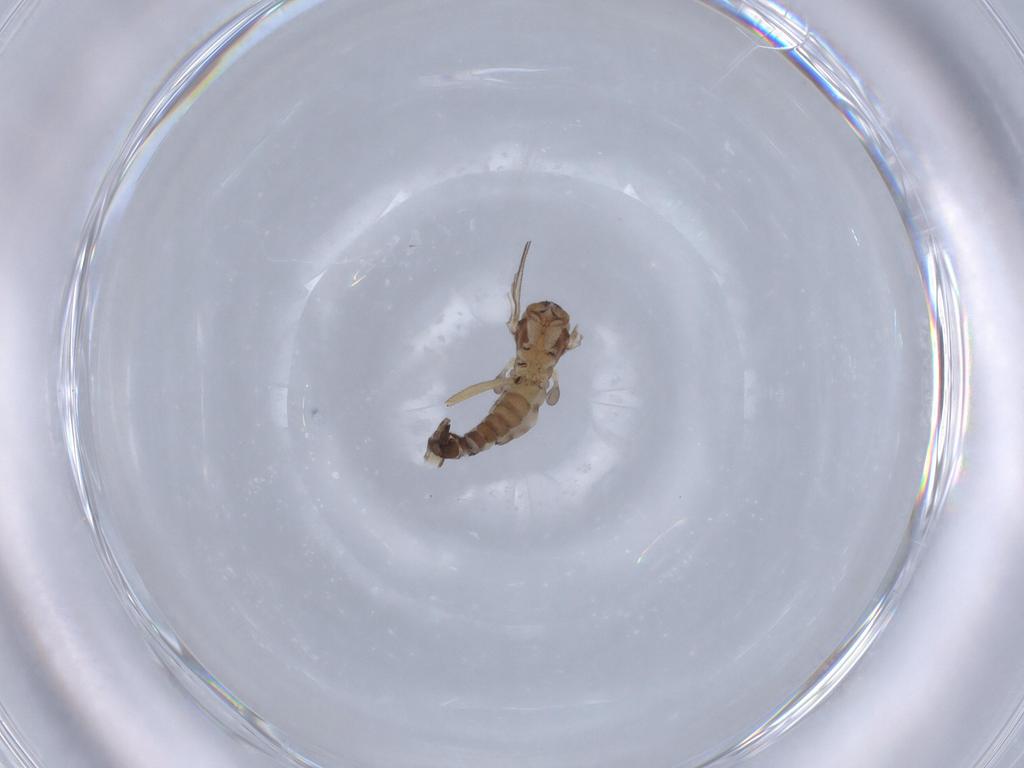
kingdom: Animalia
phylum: Arthropoda
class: Insecta
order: Diptera
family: Sciaridae
